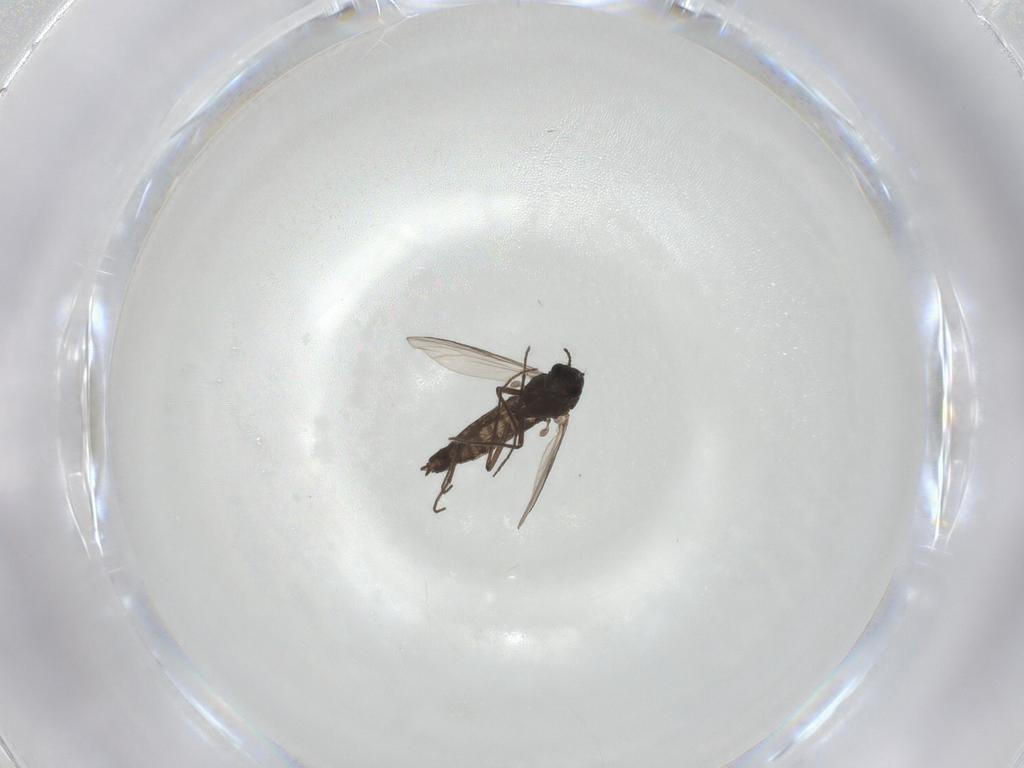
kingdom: Animalia
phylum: Arthropoda
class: Insecta
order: Diptera
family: Chironomidae
